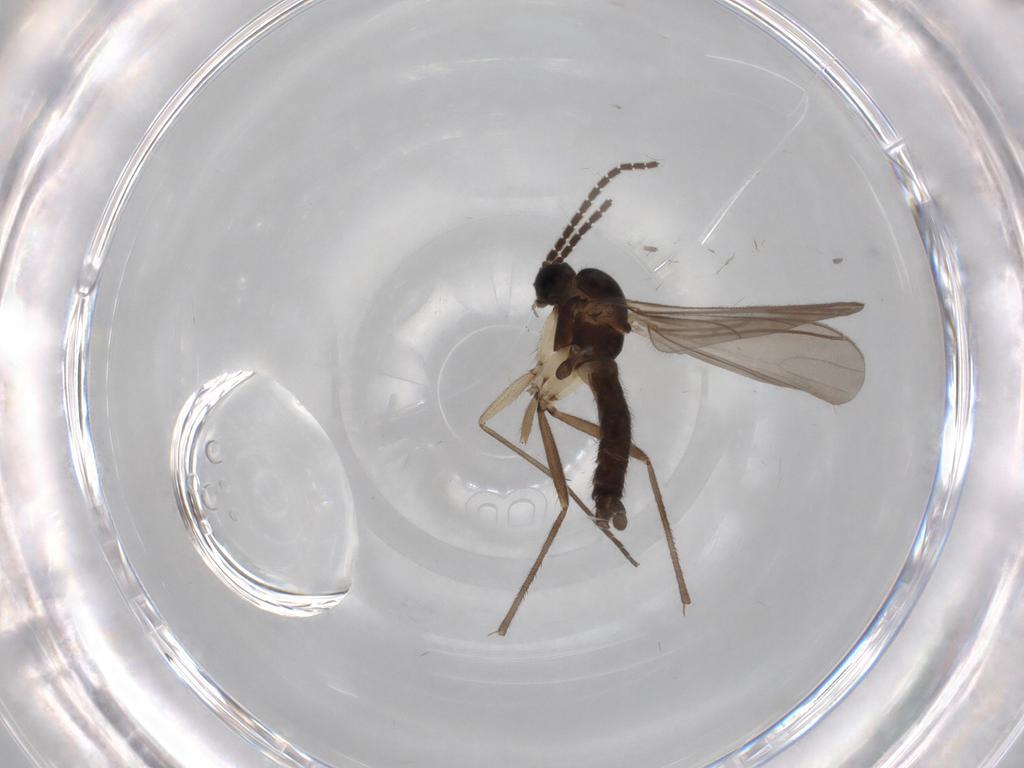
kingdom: Animalia
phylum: Arthropoda
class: Insecta
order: Diptera
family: Sciaridae
